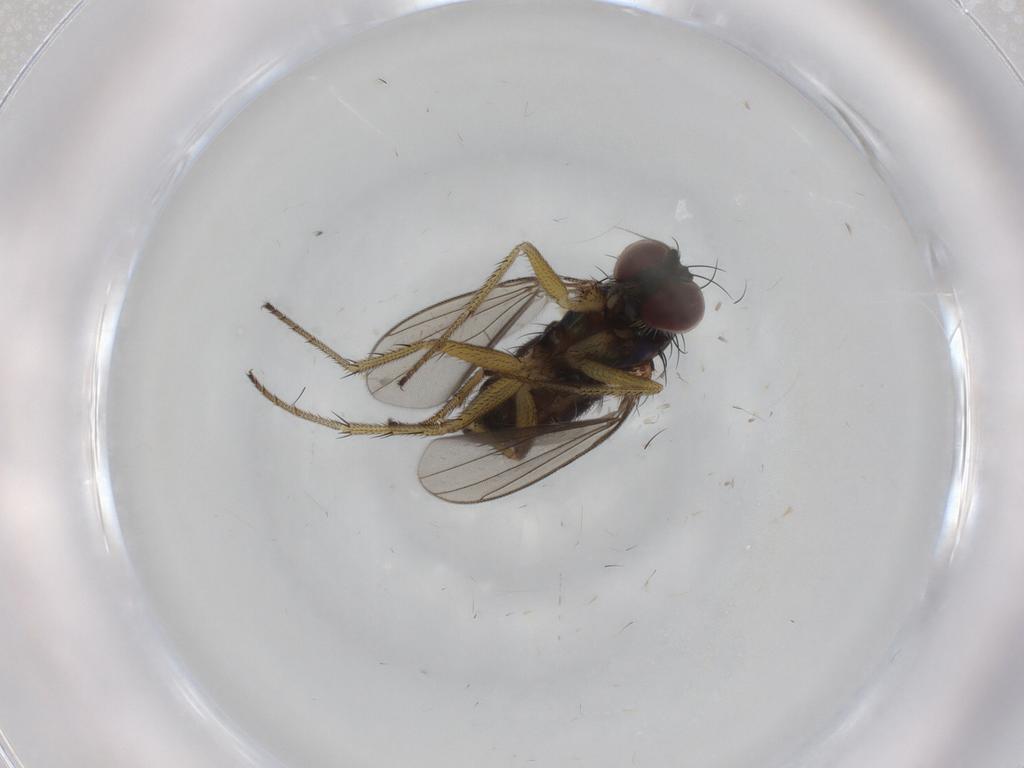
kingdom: Animalia
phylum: Arthropoda
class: Insecta
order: Diptera
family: Dolichopodidae
